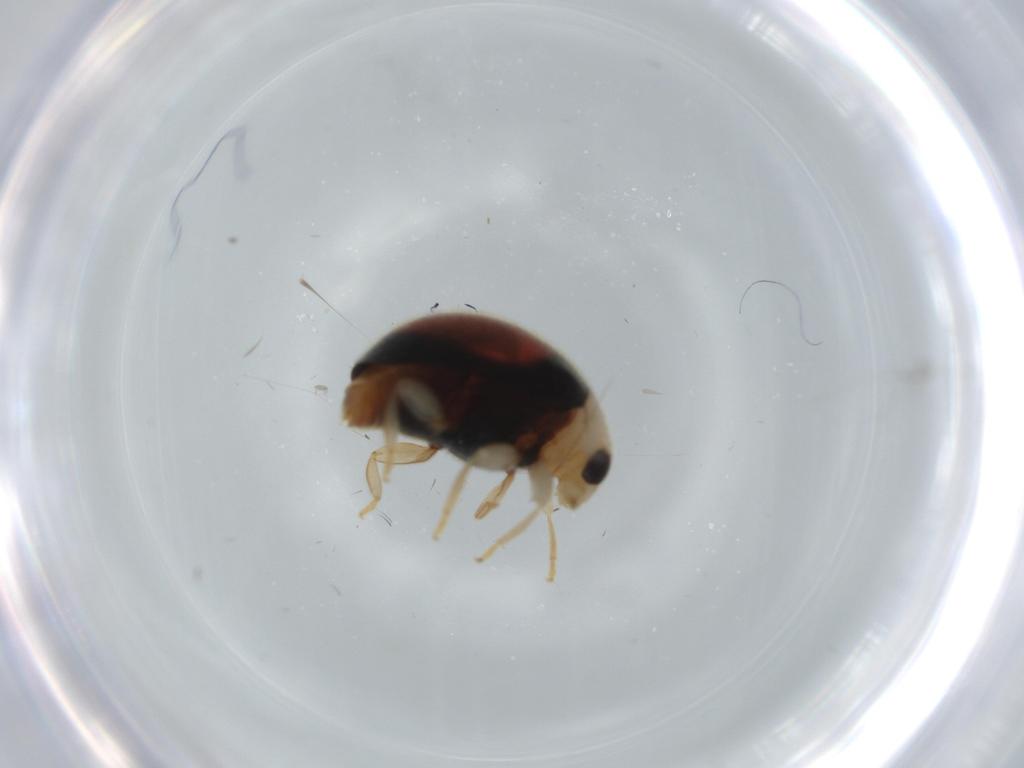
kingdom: Animalia
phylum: Arthropoda
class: Insecta
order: Coleoptera
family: Coccinellidae
